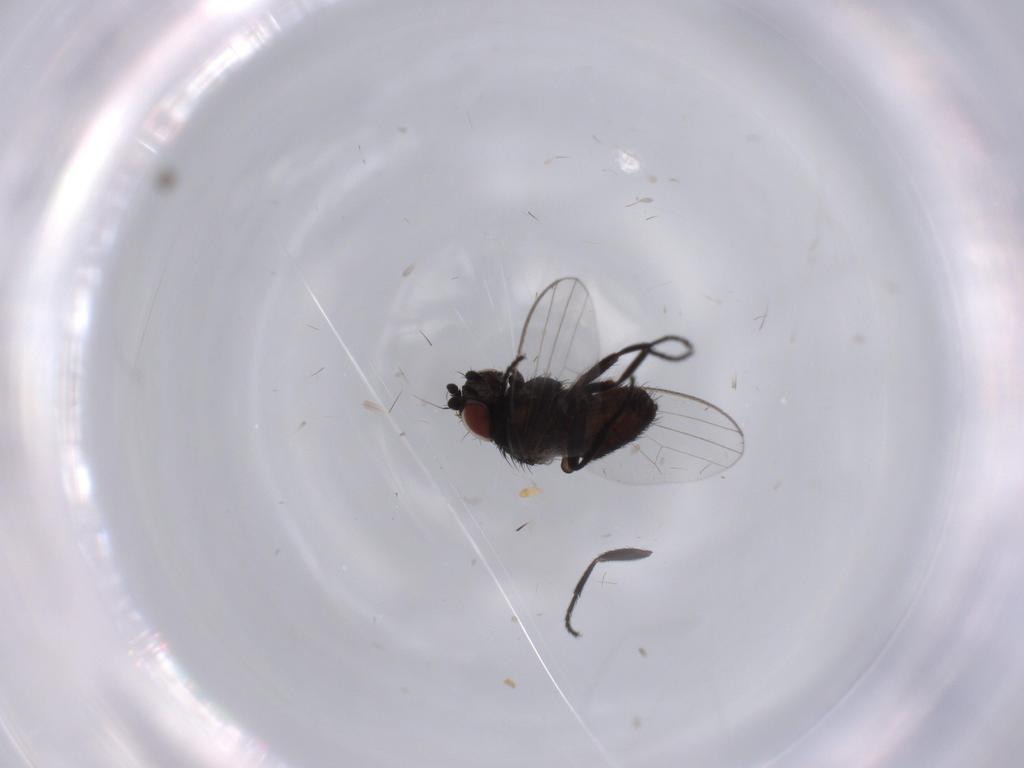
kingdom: Animalia
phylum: Arthropoda
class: Insecta
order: Diptera
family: Milichiidae
